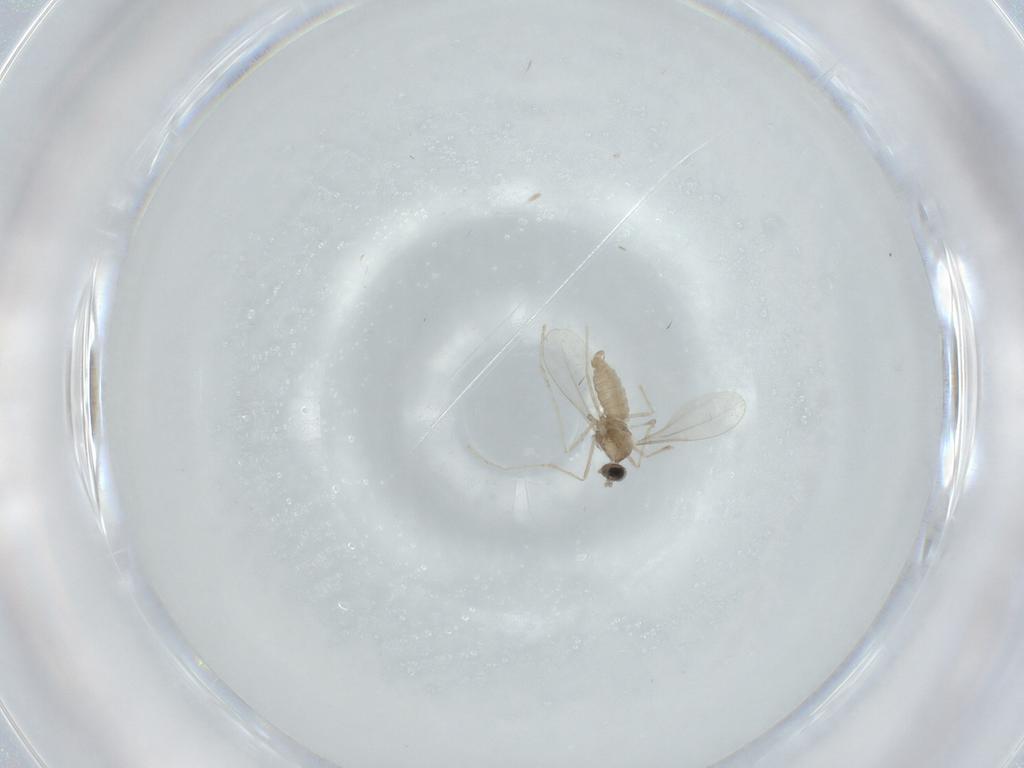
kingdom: Animalia
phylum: Arthropoda
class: Insecta
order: Diptera
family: Cecidomyiidae
